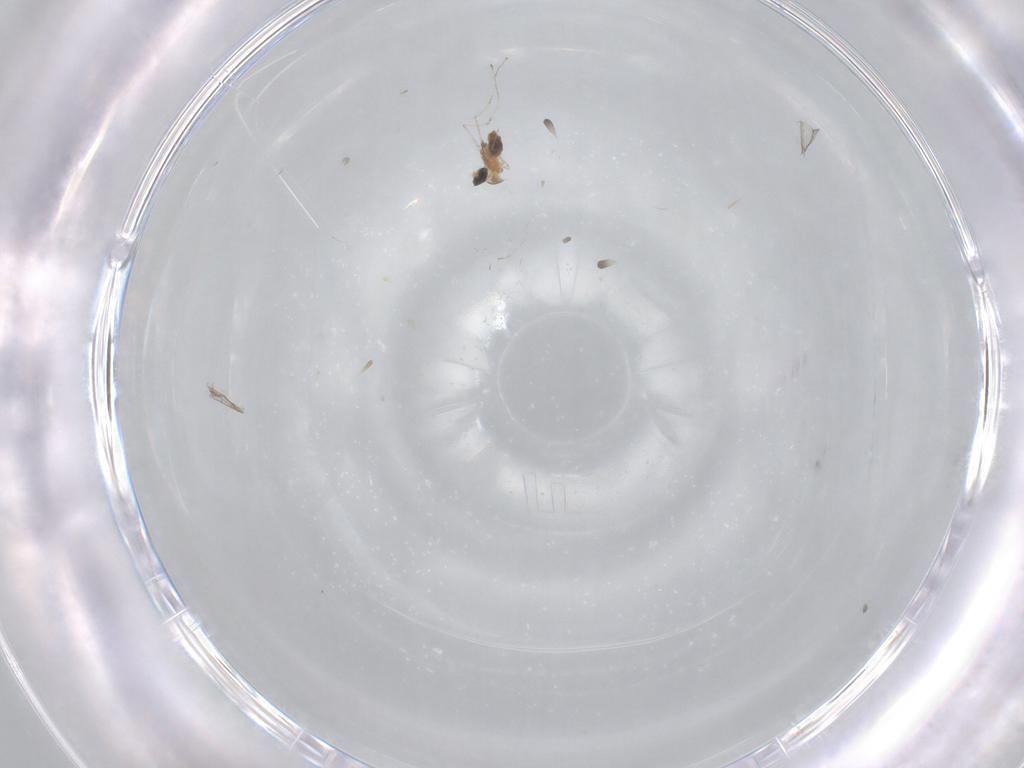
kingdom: Animalia
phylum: Arthropoda
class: Insecta
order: Diptera
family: Cecidomyiidae
